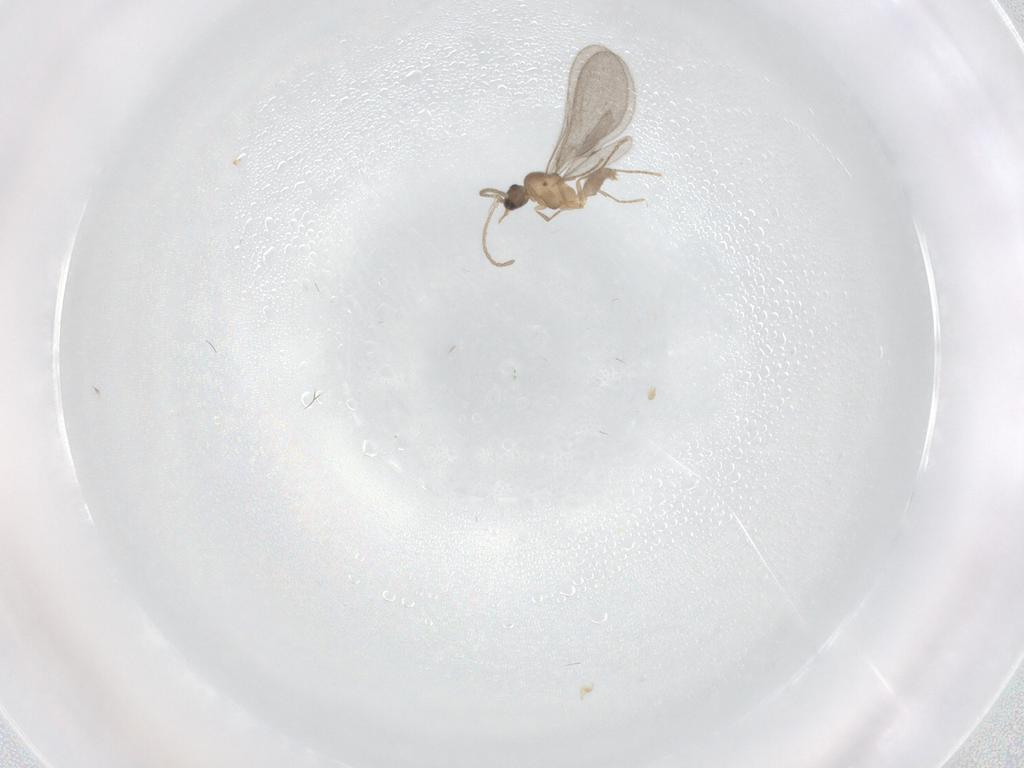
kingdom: Animalia
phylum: Arthropoda
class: Insecta
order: Hymenoptera
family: Formicidae
